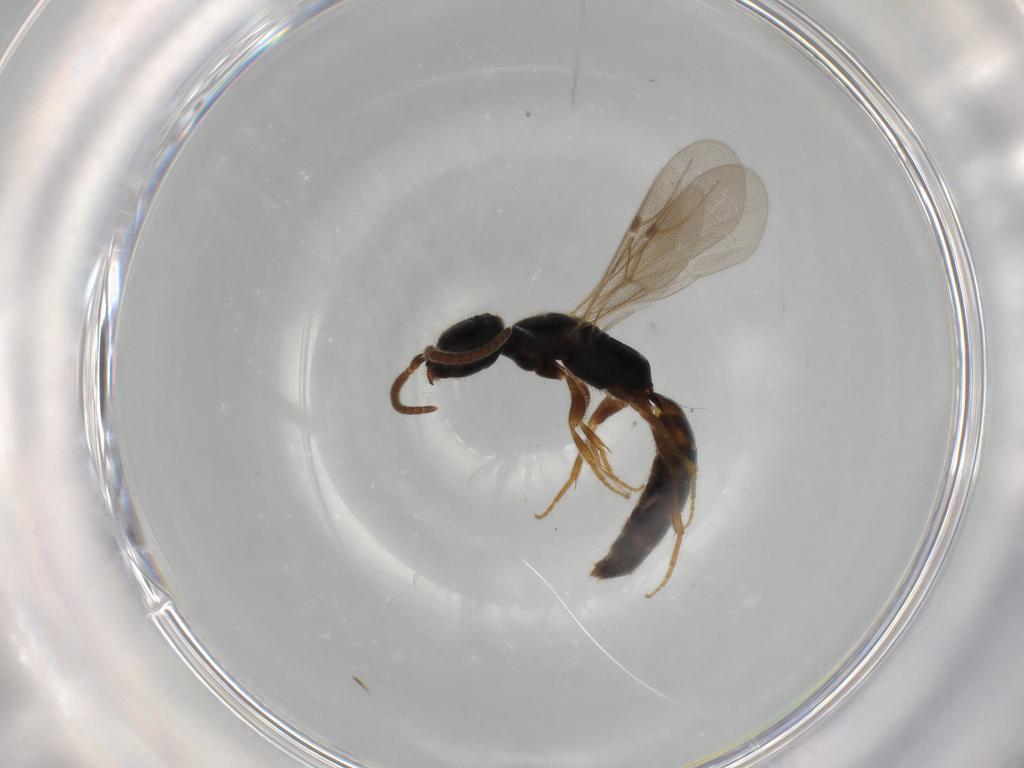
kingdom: Animalia
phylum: Arthropoda
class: Insecta
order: Hymenoptera
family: Bethylidae
